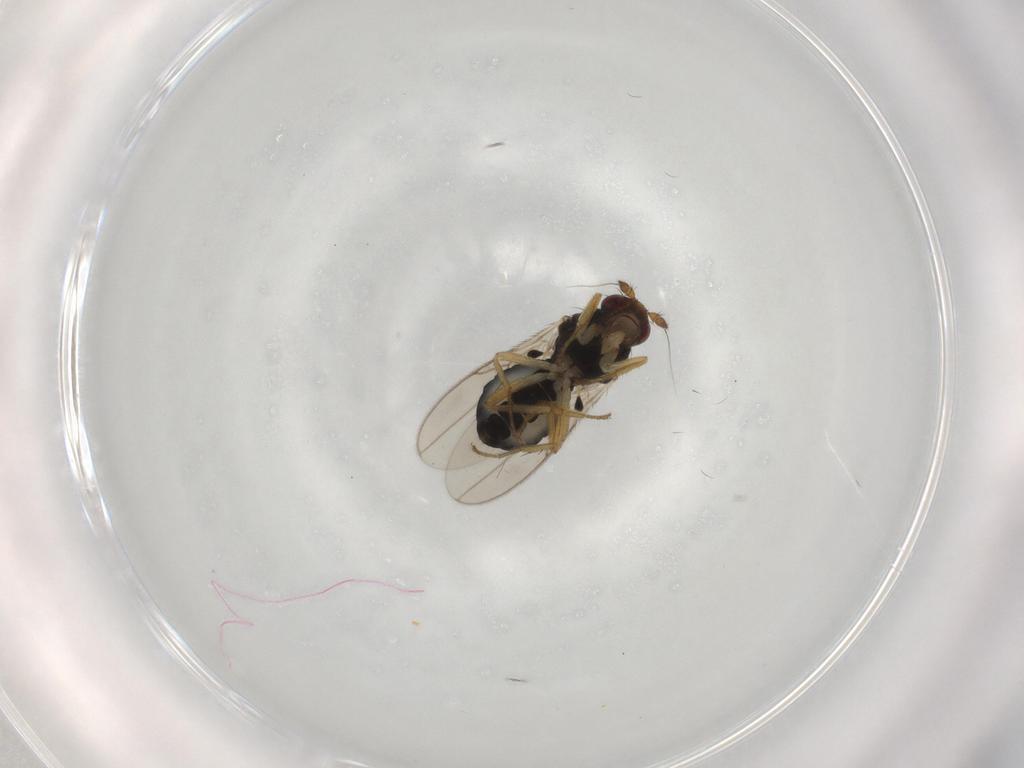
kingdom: Animalia
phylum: Arthropoda
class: Insecta
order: Diptera
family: Sphaeroceridae
